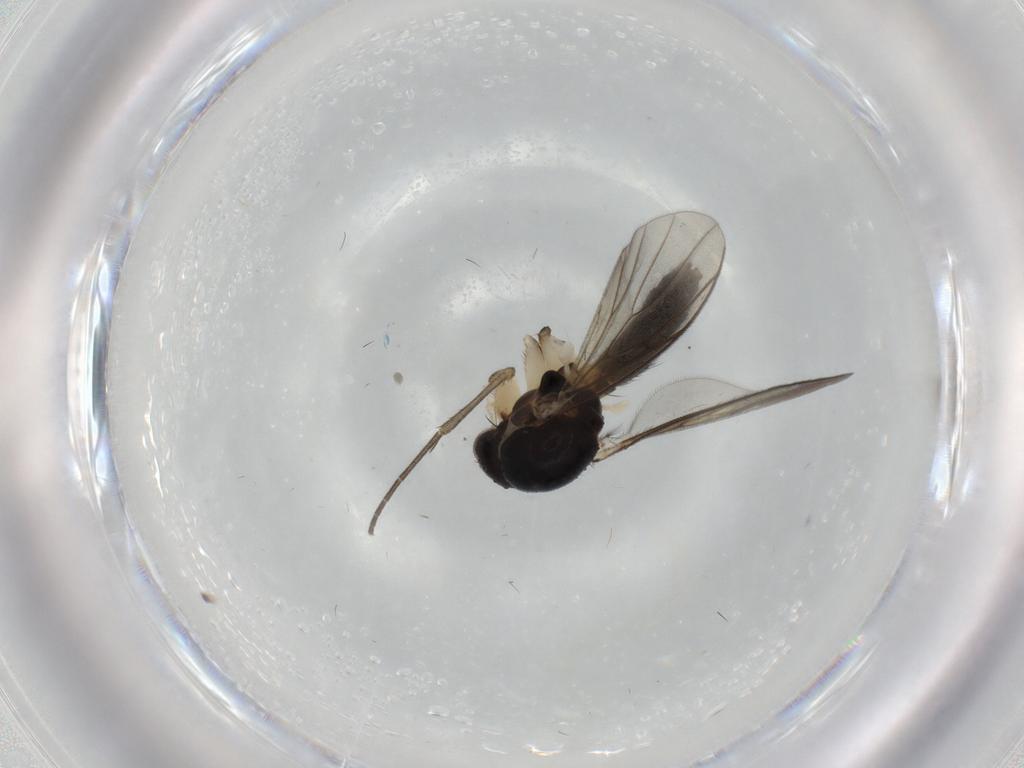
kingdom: Animalia
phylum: Arthropoda
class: Insecta
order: Diptera
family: Mycetophilidae
